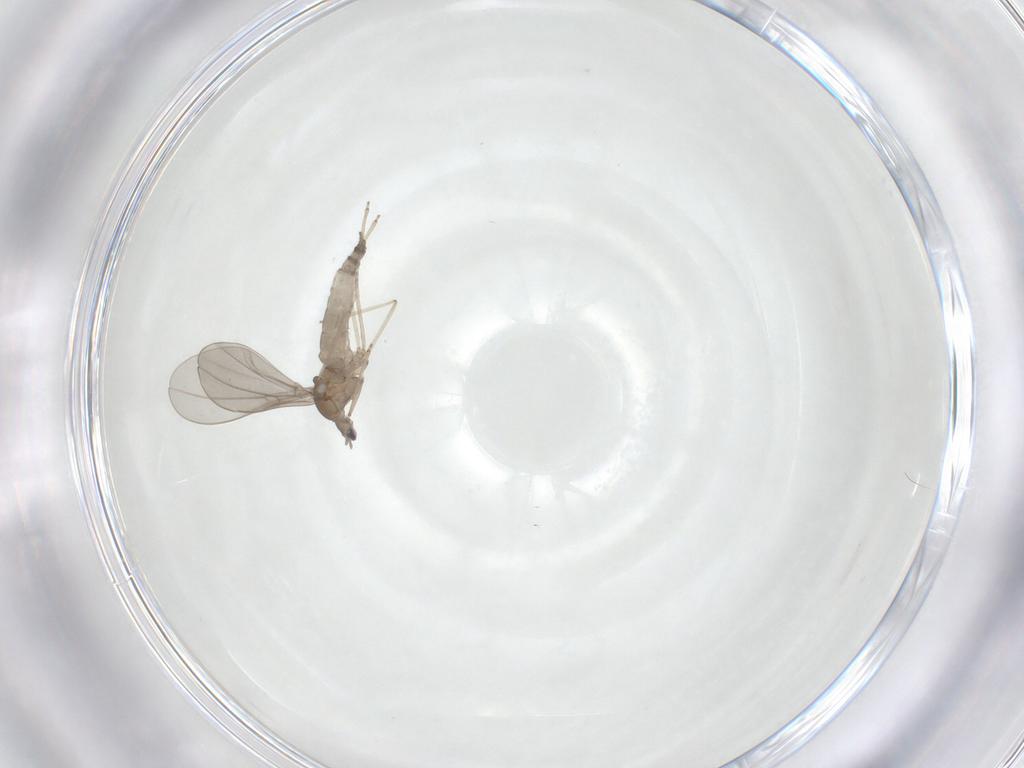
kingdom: Animalia
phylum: Arthropoda
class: Insecta
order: Diptera
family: Cecidomyiidae
